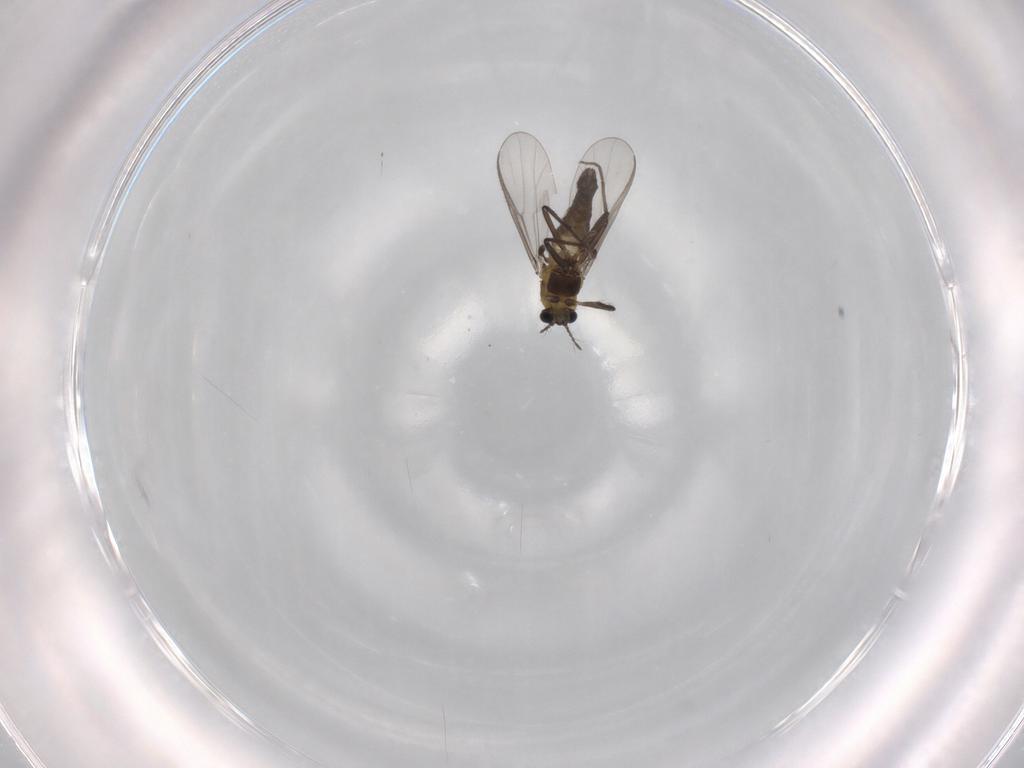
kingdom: Animalia
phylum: Arthropoda
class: Insecta
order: Diptera
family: Chironomidae
